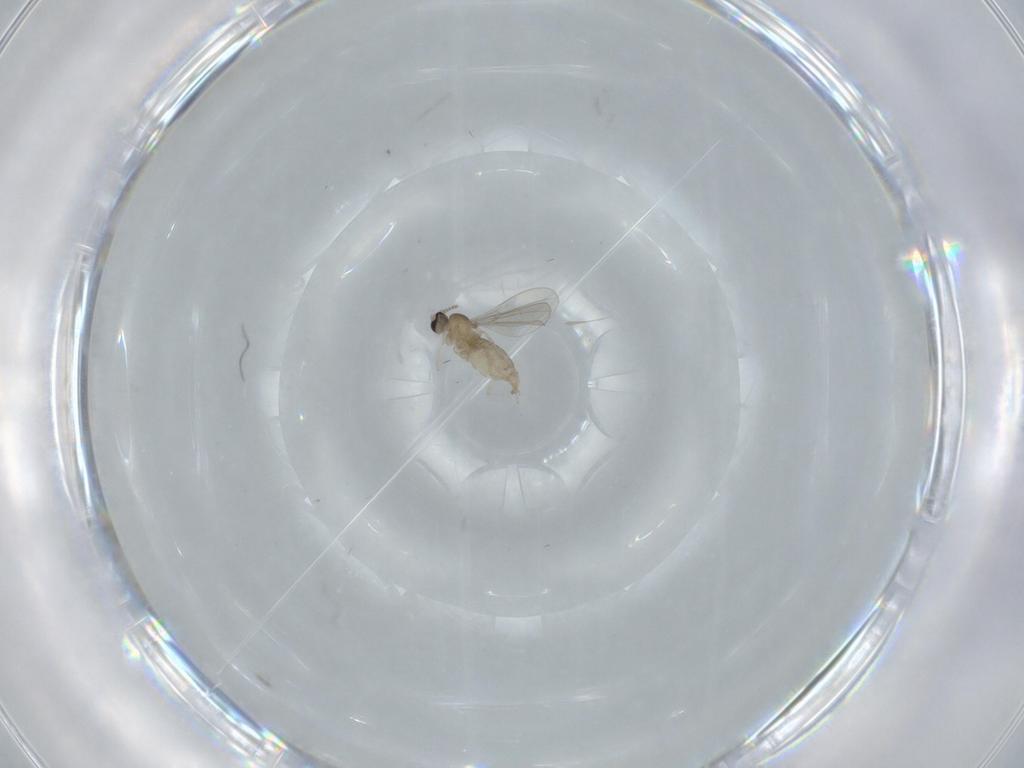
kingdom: Animalia
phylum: Arthropoda
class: Insecta
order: Diptera
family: Cecidomyiidae
